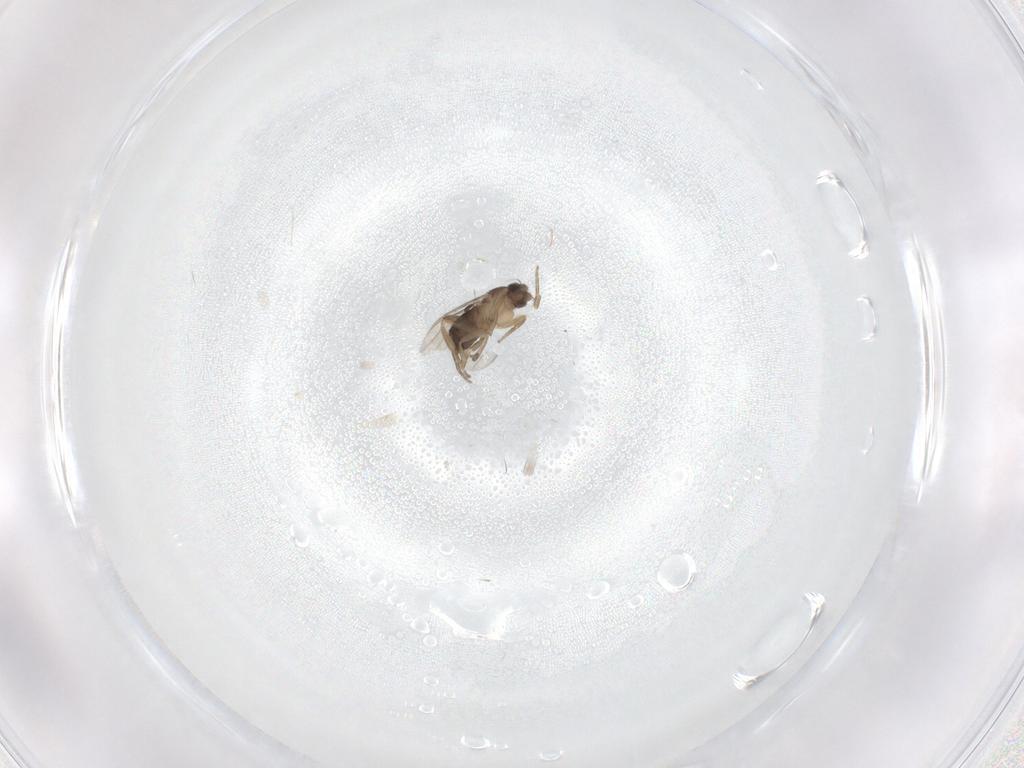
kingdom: Animalia
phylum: Arthropoda
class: Insecta
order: Diptera
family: Phoridae
